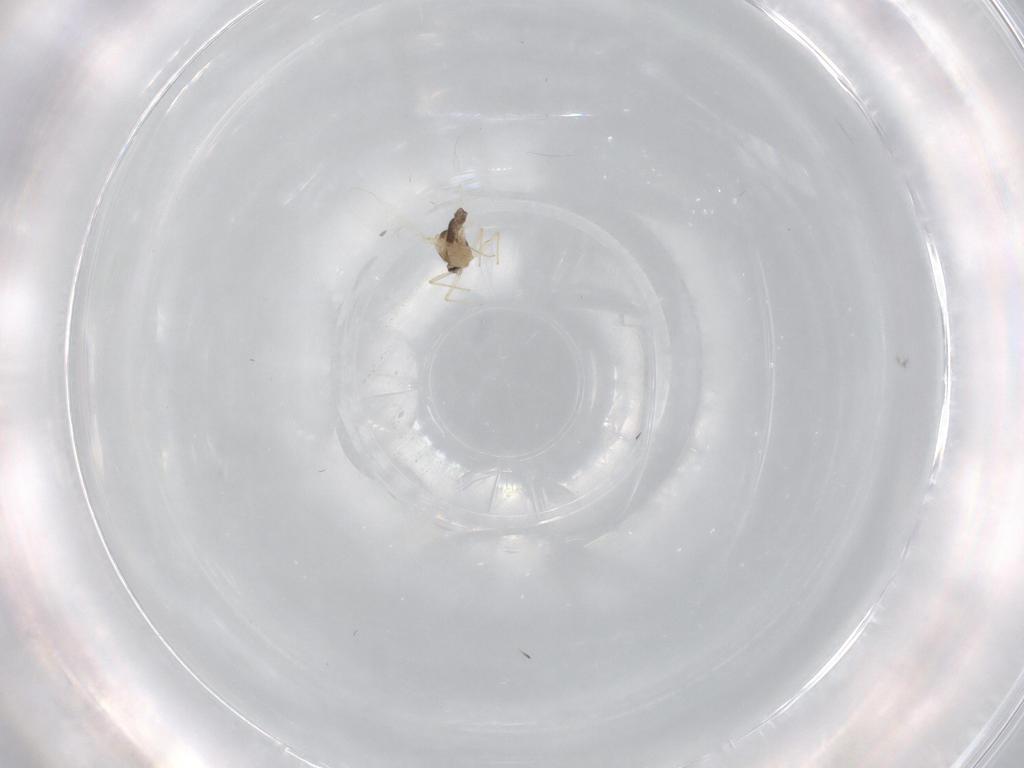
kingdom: Animalia
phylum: Arthropoda
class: Insecta
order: Diptera
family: Cecidomyiidae
